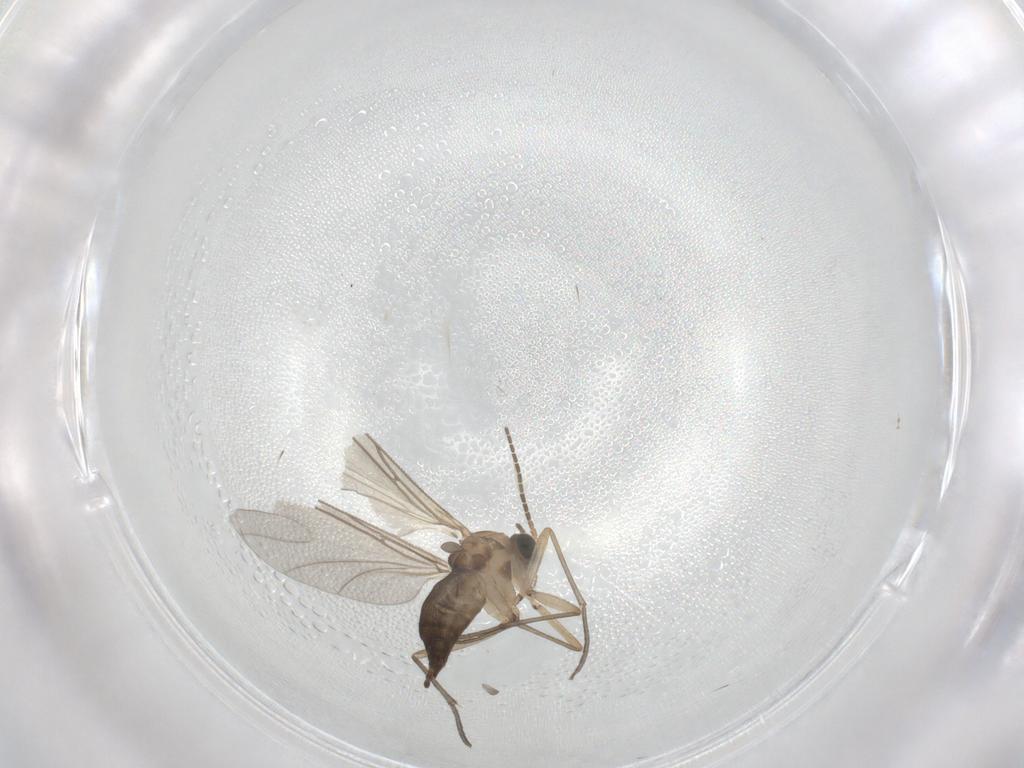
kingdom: Animalia
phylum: Arthropoda
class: Insecta
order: Diptera
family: Sciaridae
